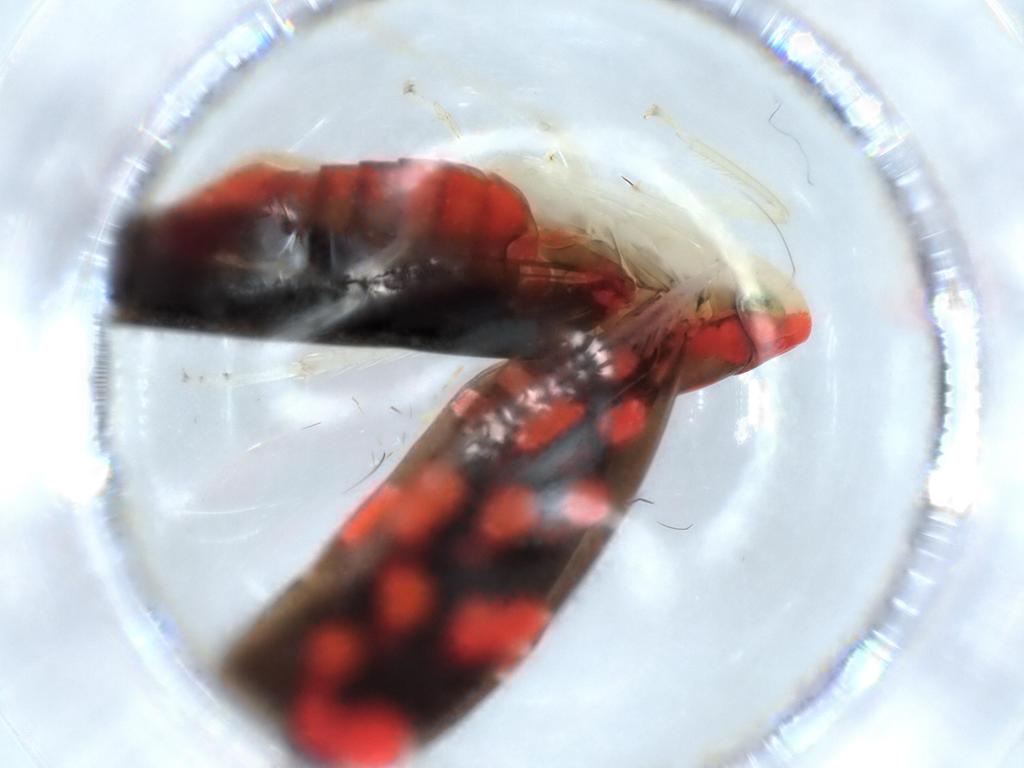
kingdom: Animalia
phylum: Arthropoda
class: Insecta
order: Hemiptera
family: Cicadellidae
